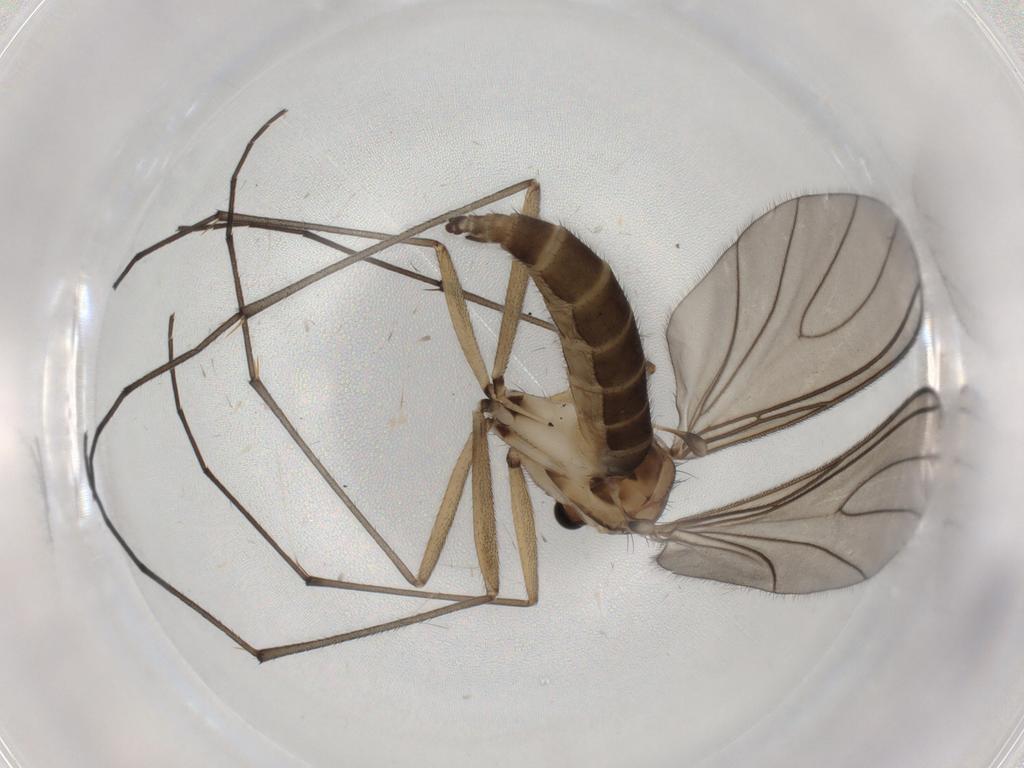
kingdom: Animalia
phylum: Arthropoda
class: Insecta
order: Diptera
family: Sciaridae
